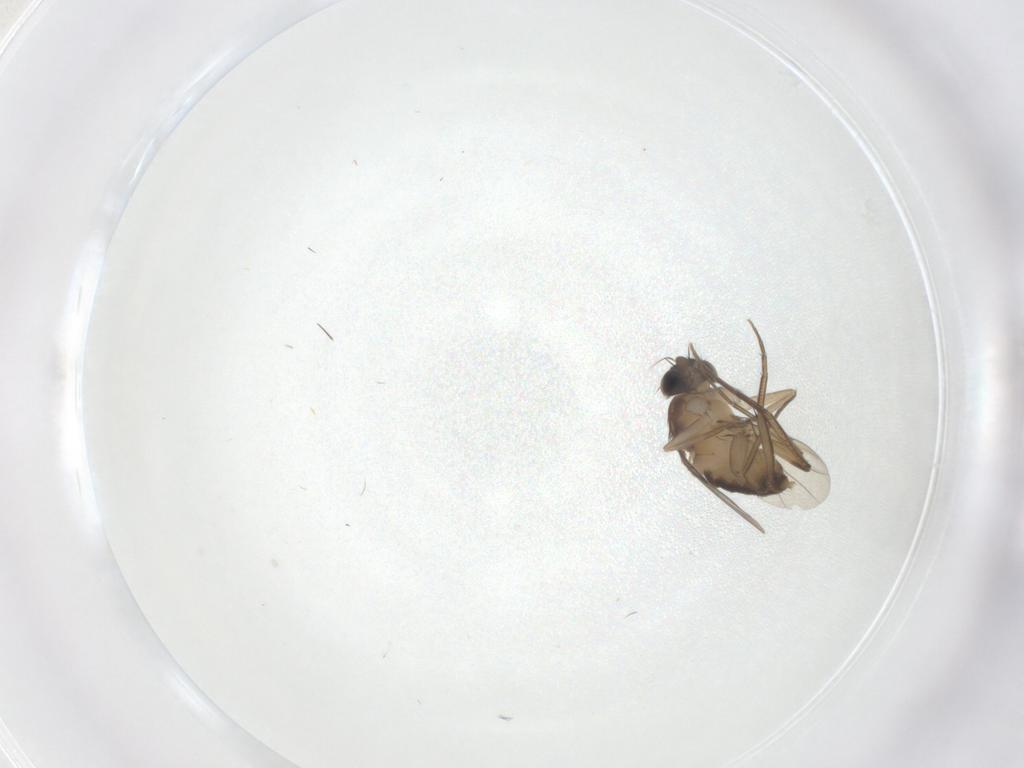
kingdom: Animalia
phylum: Arthropoda
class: Insecta
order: Diptera
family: Phoridae
